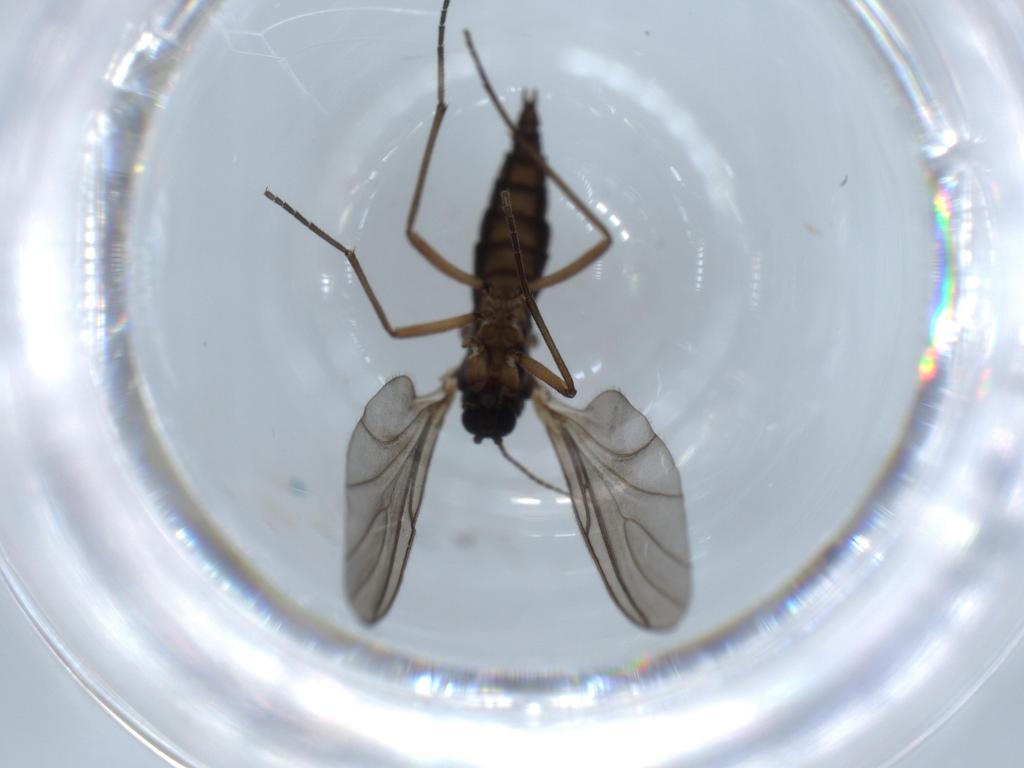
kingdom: Animalia
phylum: Arthropoda
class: Insecta
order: Diptera
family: Sciaridae
